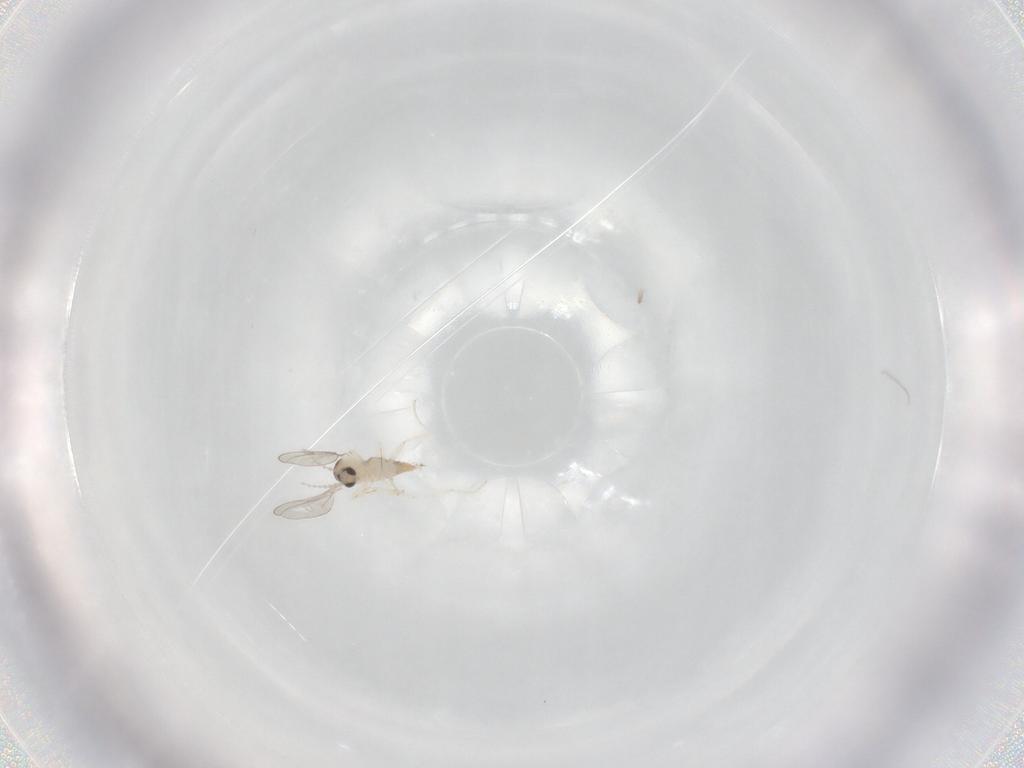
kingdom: Animalia
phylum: Arthropoda
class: Insecta
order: Diptera
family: Cecidomyiidae
